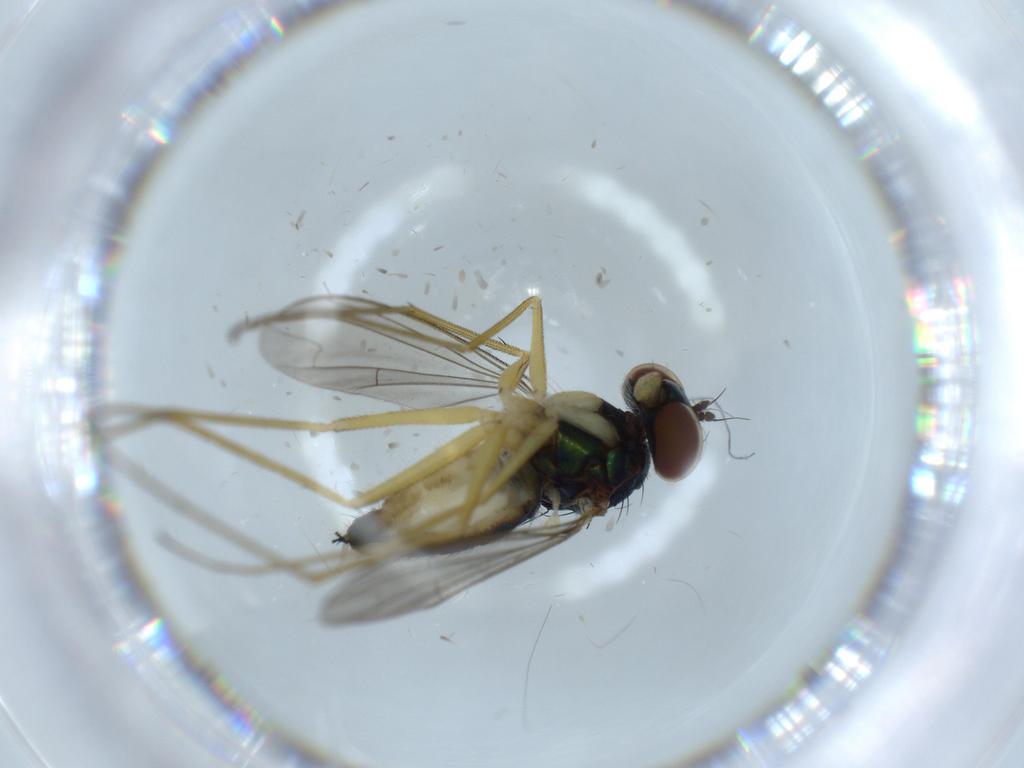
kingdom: Animalia
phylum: Arthropoda
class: Insecta
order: Diptera
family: Dolichopodidae
